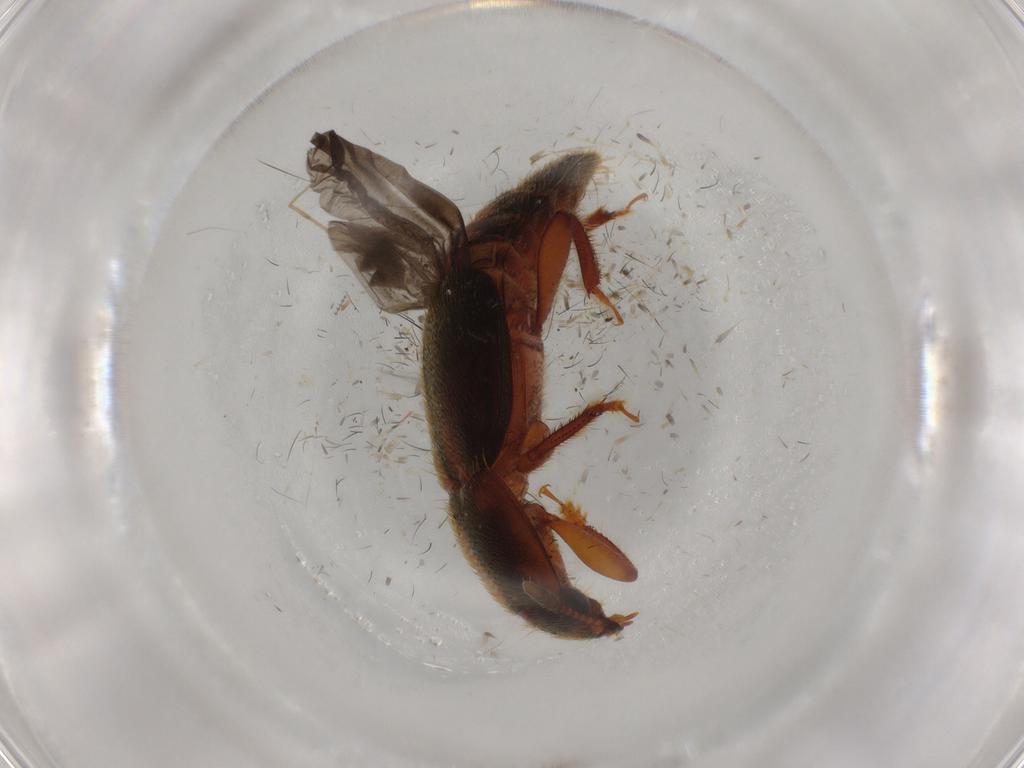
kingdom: Animalia
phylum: Arthropoda
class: Insecta
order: Coleoptera
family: Nitidulidae
